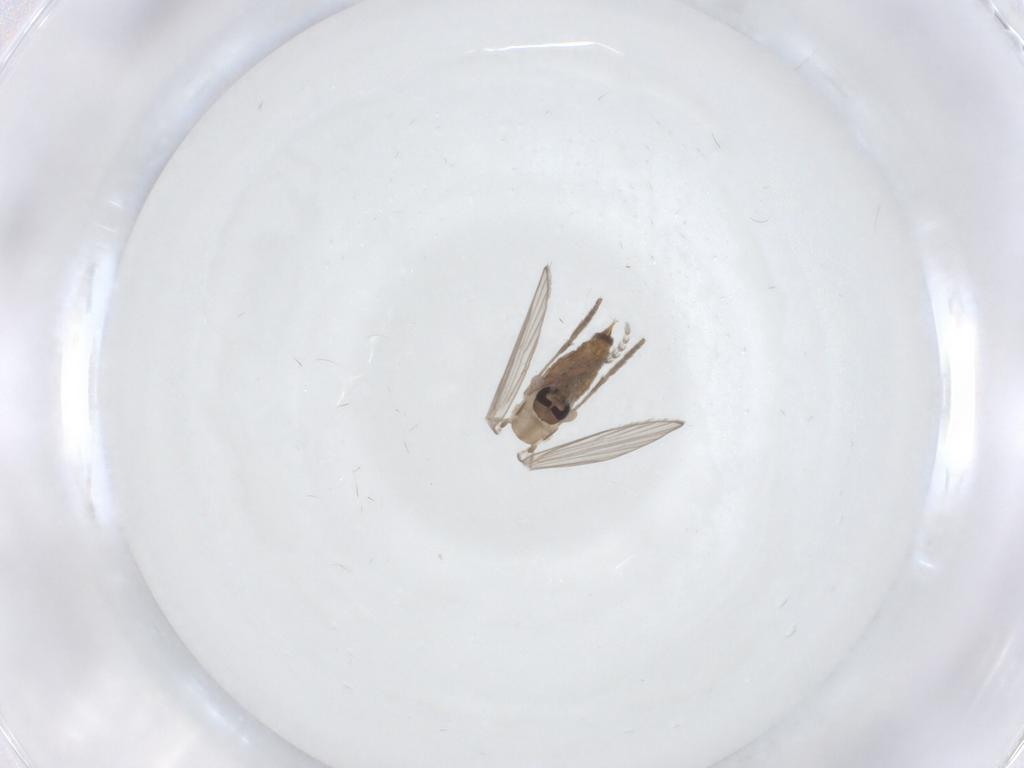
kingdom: Animalia
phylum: Arthropoda
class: Insecta
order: Diptera
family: Psychodidae
